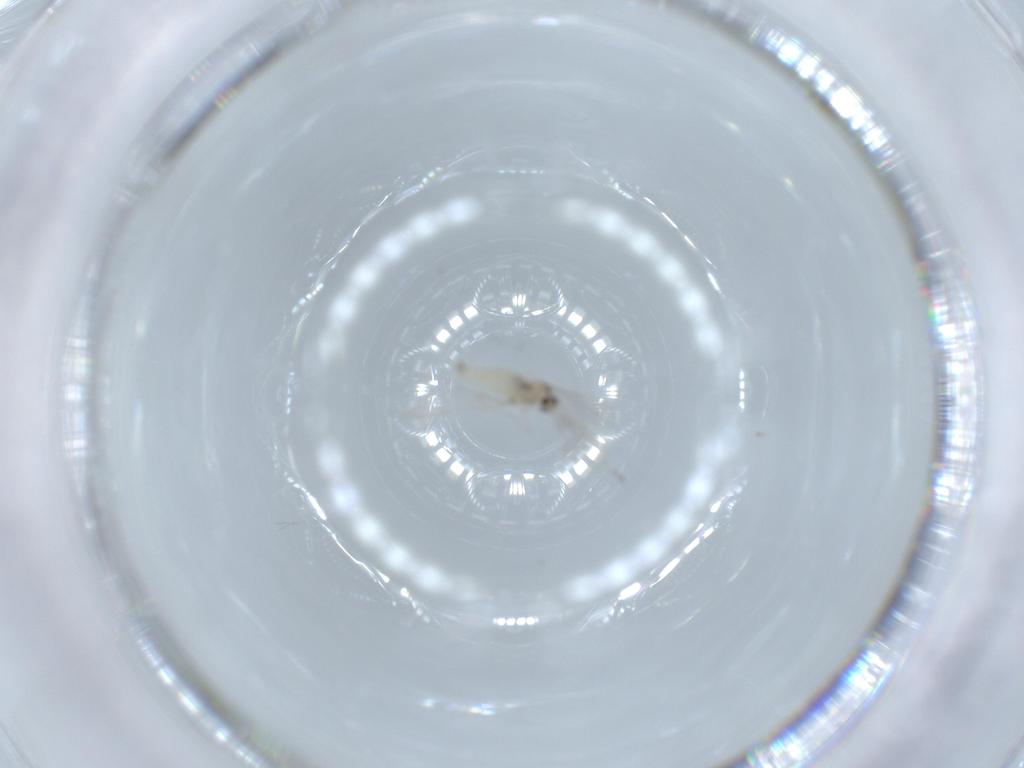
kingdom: Animalia
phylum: Arthropoda
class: Insecta
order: Diptera
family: Ceratopogonidae
